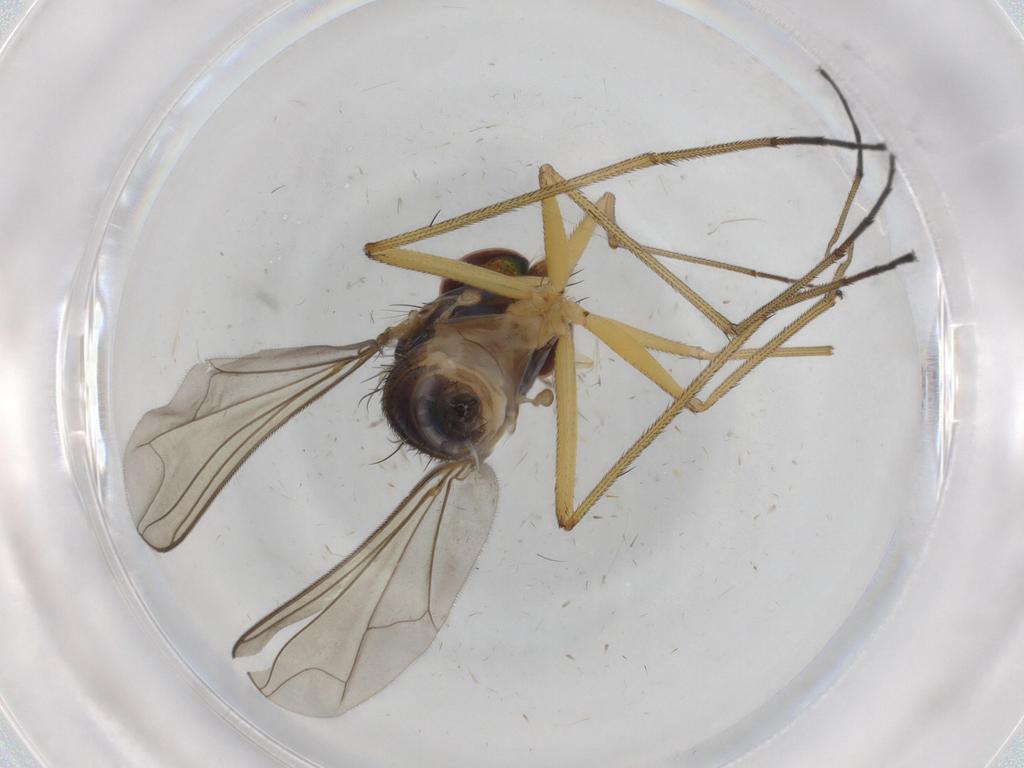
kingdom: Animalia
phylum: Arthropoda
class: Insecta
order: Diptera
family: Dolichopodidae
